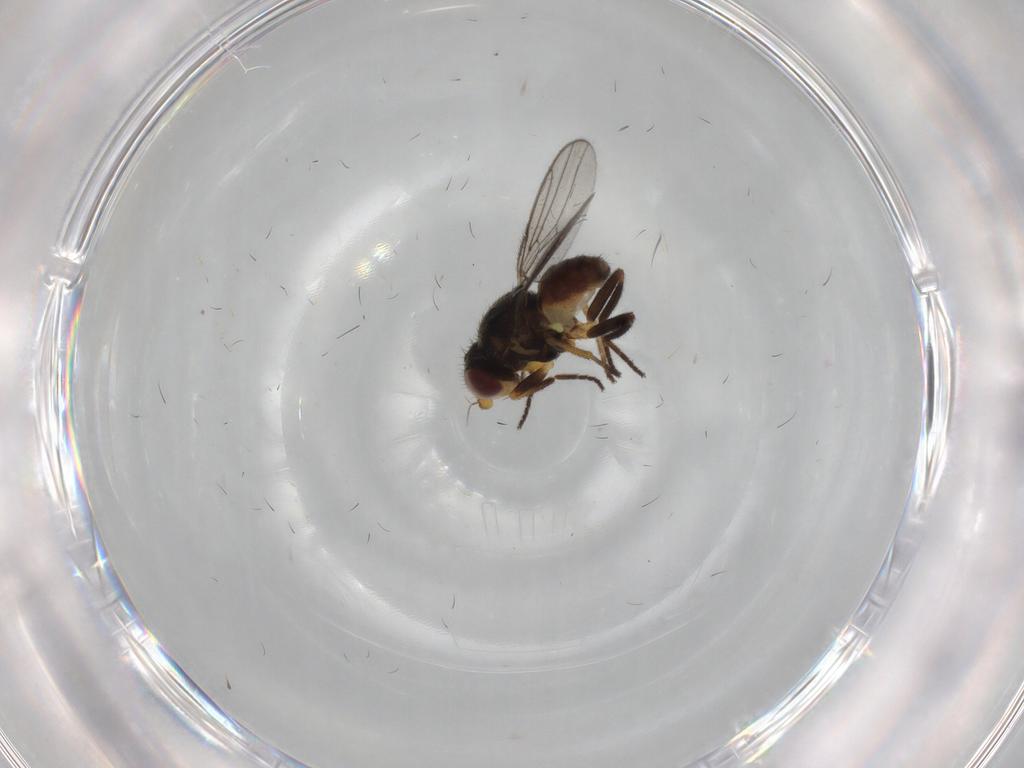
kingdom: Animalia
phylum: Arthropoda
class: Insecta
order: Diptera
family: Chloropidae
